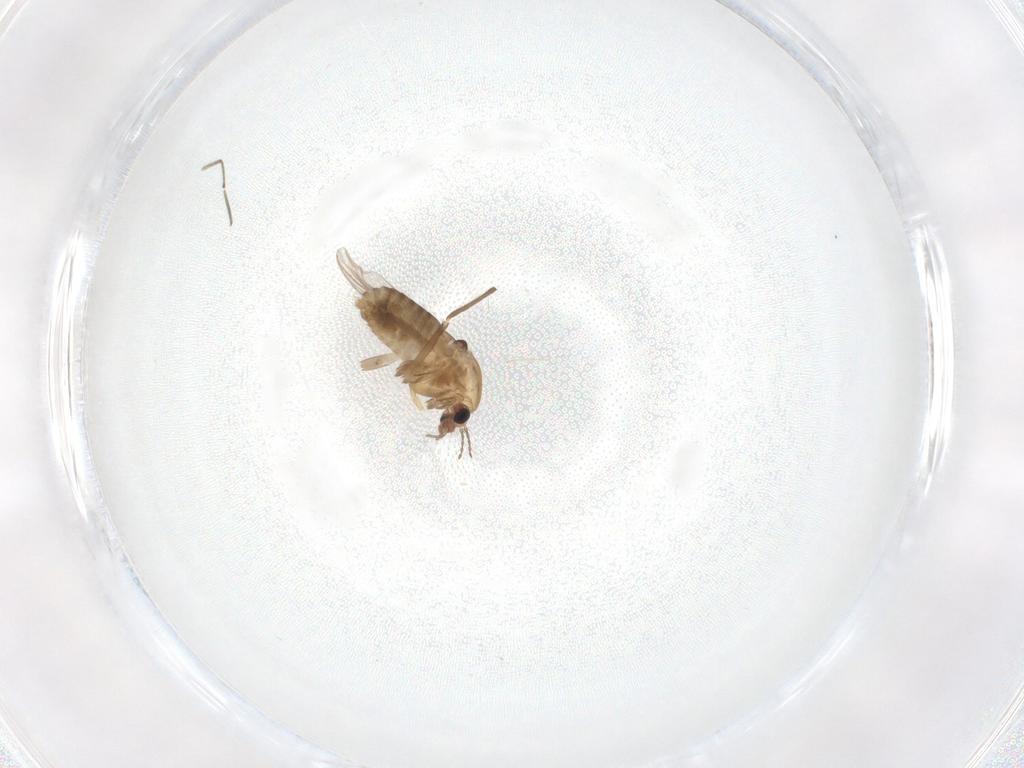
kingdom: Animalia
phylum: Arthropoda
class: Insecta
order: Diptera
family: Chironomidae
